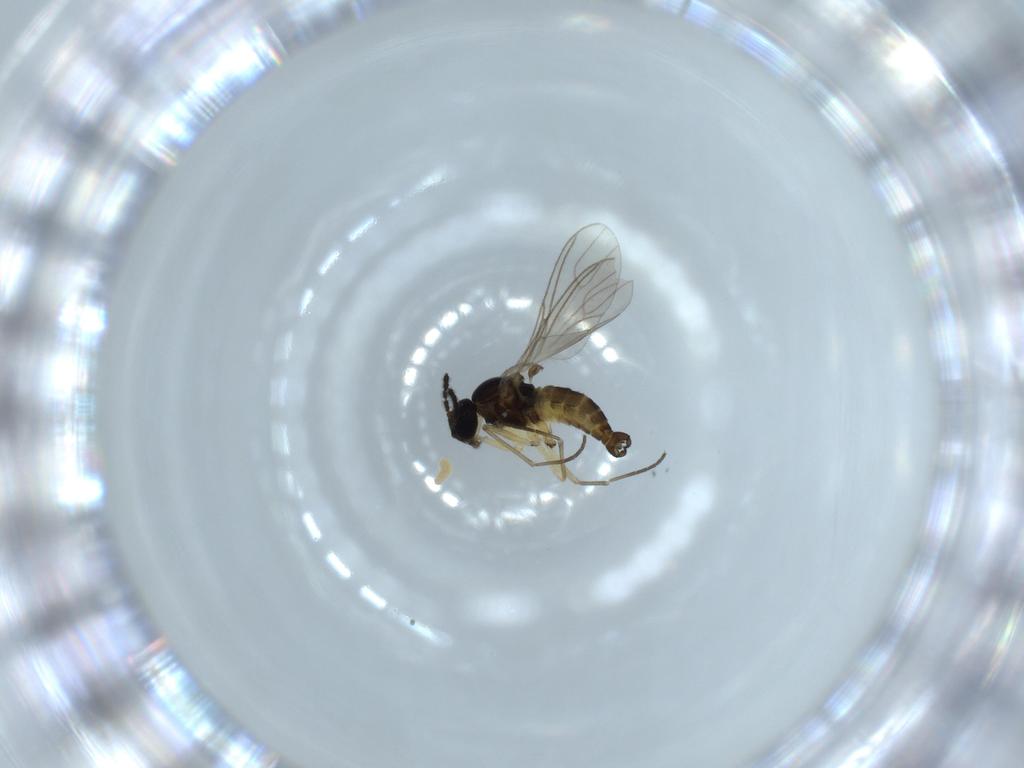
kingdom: Animalia
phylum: Arthropoda
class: Insecta
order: Diptera
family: Sciaridae
